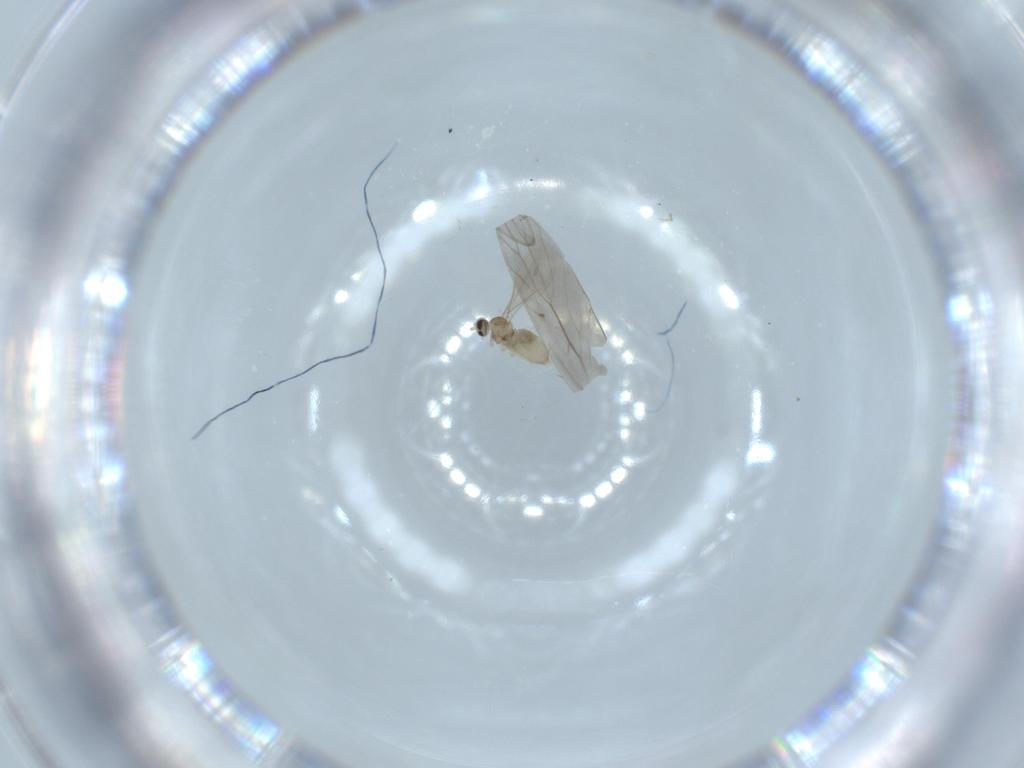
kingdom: Animalia
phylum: Arthropoda
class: Insecta
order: Diptera
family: Cecidomyiidae
